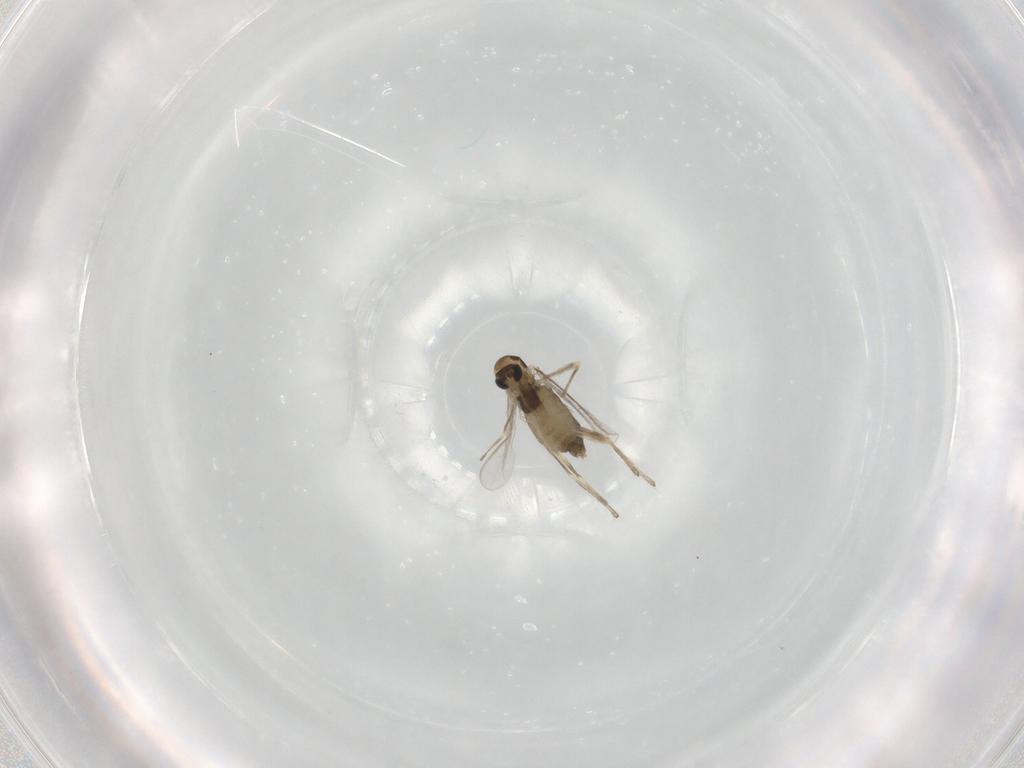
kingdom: Animalia
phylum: Arthropoda
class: Insecta
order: Diptera
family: Chironomidae
